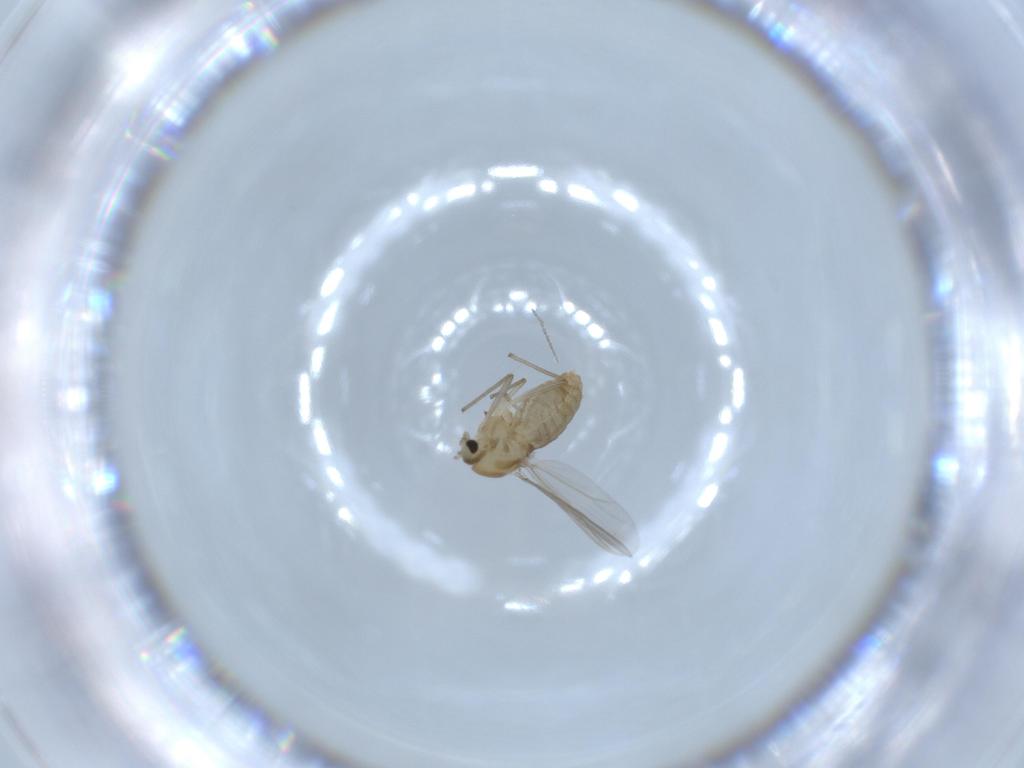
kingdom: Animalia
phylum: Arthropoda
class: Insecta
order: Diptera
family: Chironomidae
